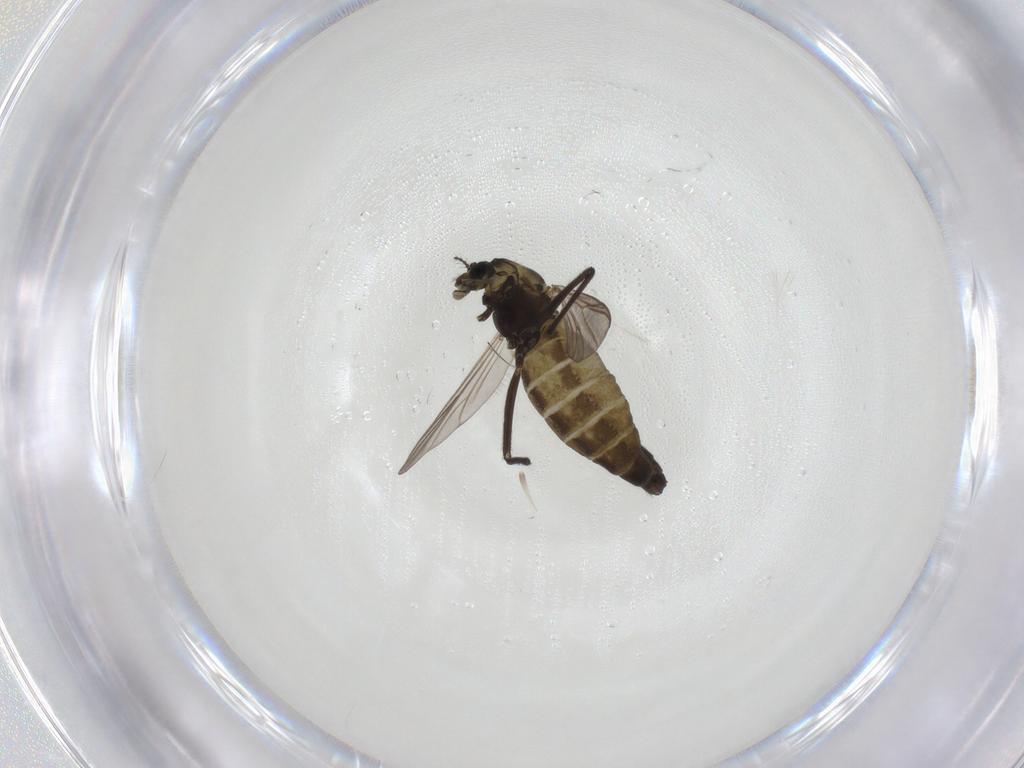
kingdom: Animalia
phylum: Arthropoda
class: Insecta
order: Diptera
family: Chironomidae
